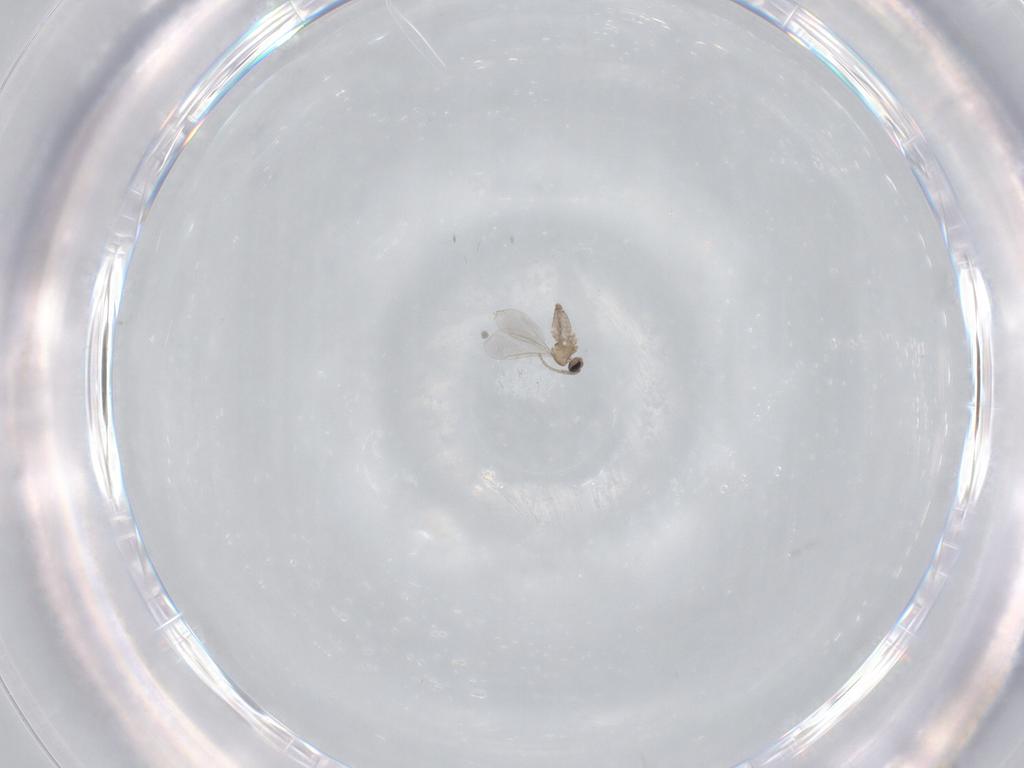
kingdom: Animalia
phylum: Arthropoda
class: Insecta
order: Diptera
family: Cecidomyiidae
